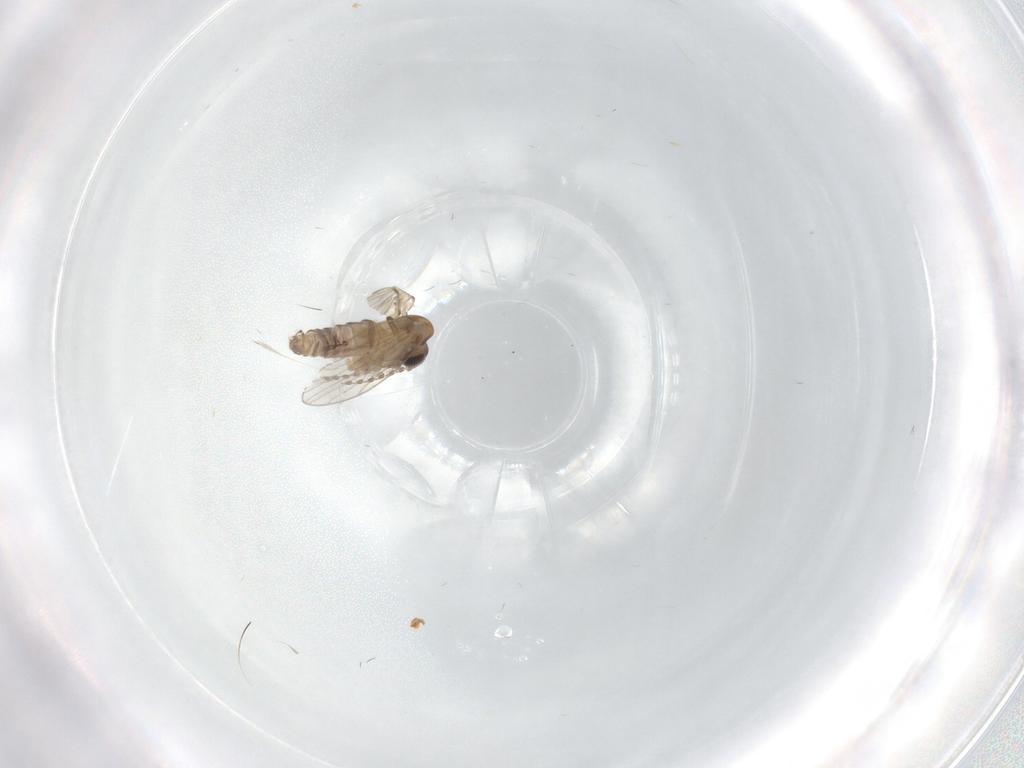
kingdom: Animalia
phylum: Arthropoda
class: Insecta
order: Diptera
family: Psychodidae
